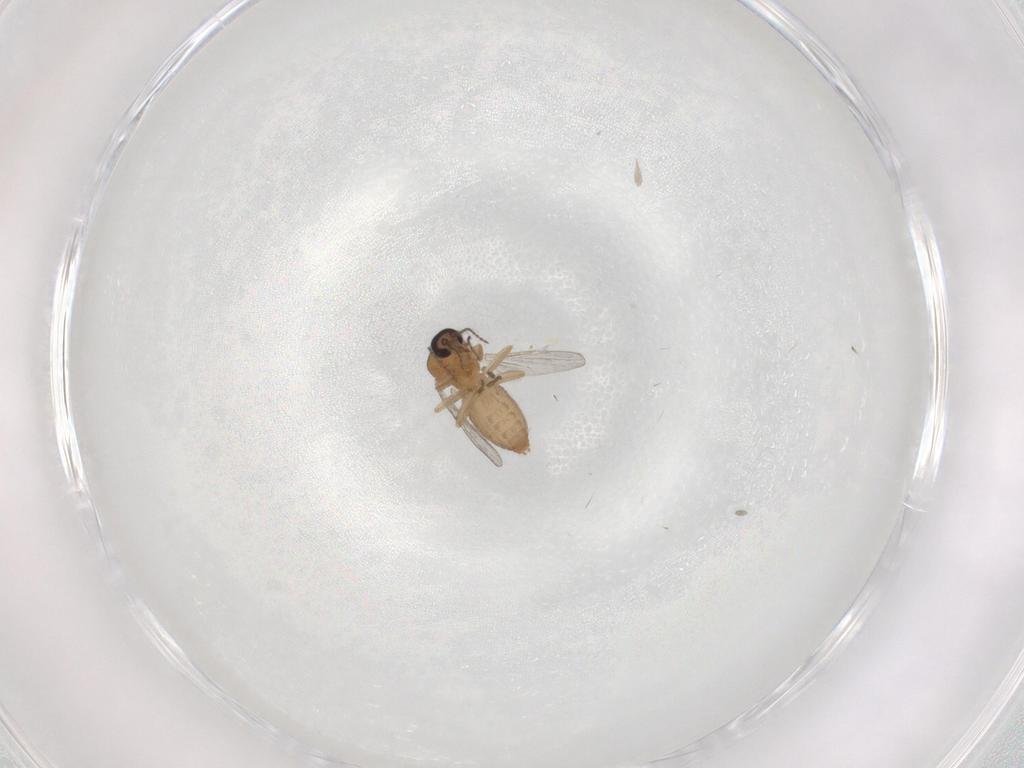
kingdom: Animalia
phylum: Arthropoda
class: Insecta
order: Diptera
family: Ceratopogonidae
